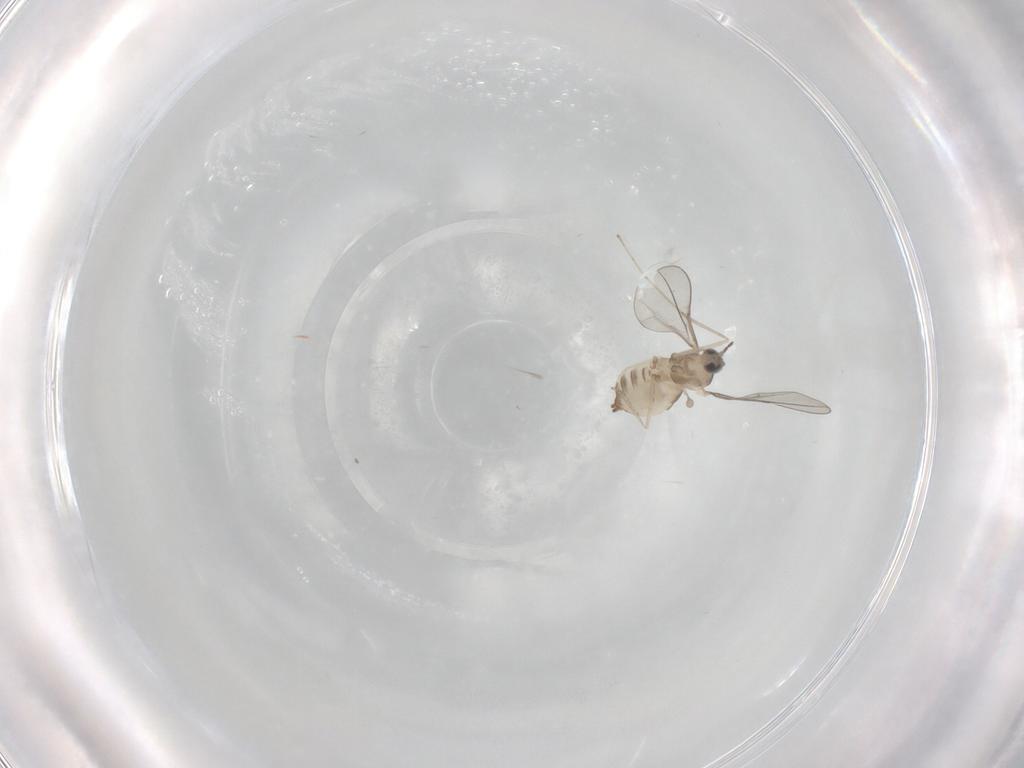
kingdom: Animalia
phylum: Arthropoda
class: Insecta
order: Diptera
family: Cecidomyiidae
